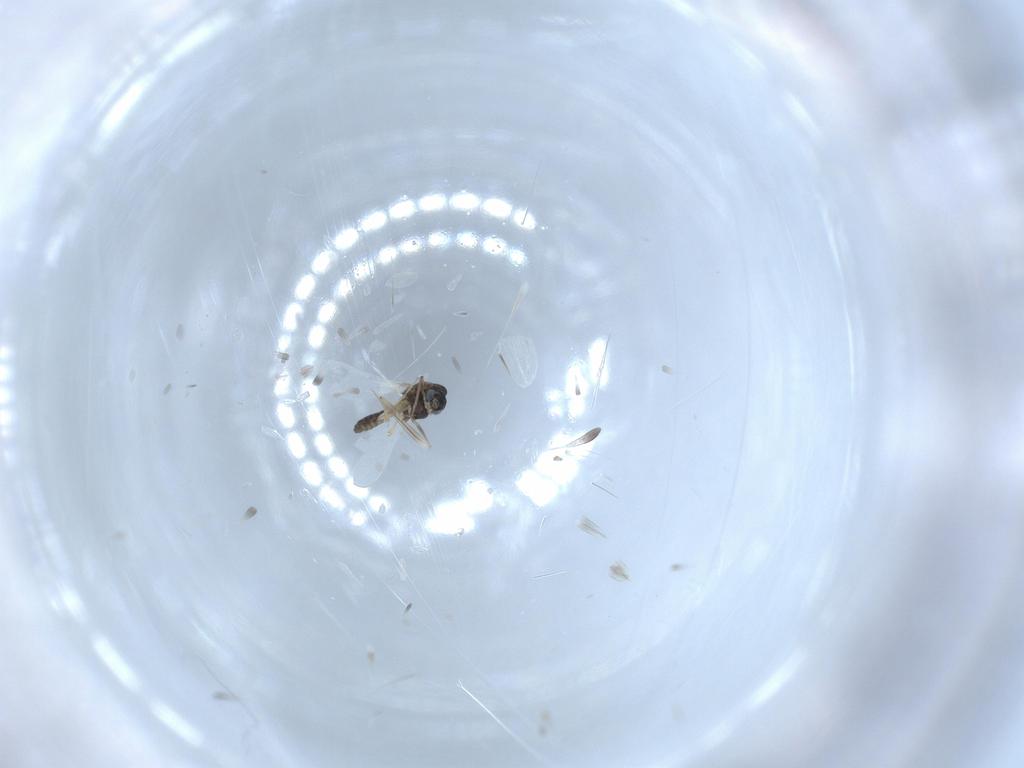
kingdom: Animalia
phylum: Arthropoda
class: Insecta
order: Diptera
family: Chironomidae
